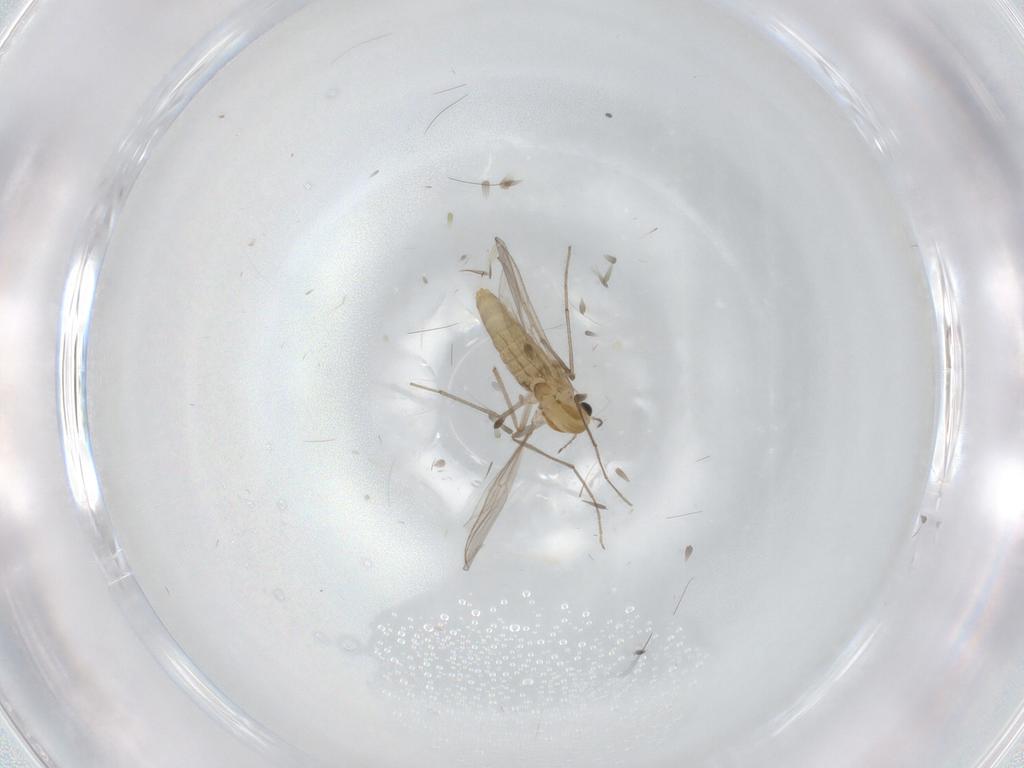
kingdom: Animalia
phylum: Arthropoda
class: Insecta
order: Diptera
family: Chironomidae
